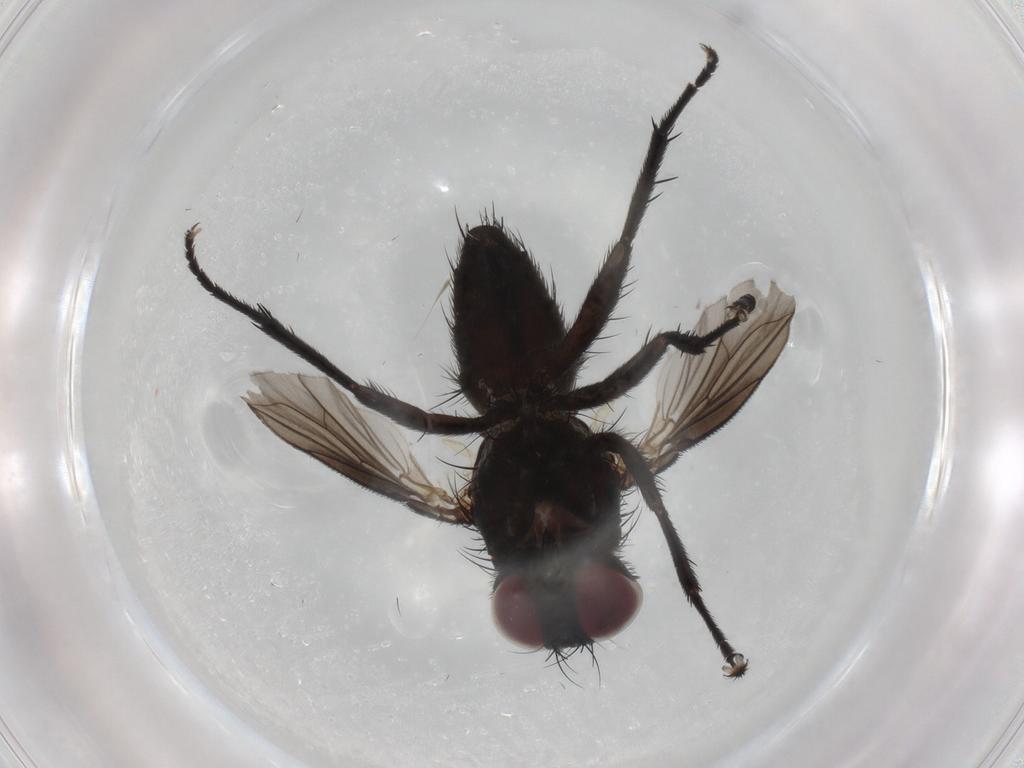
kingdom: Animalia
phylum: Arthropoda
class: Insecta
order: Diptera
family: Calliphoridae
